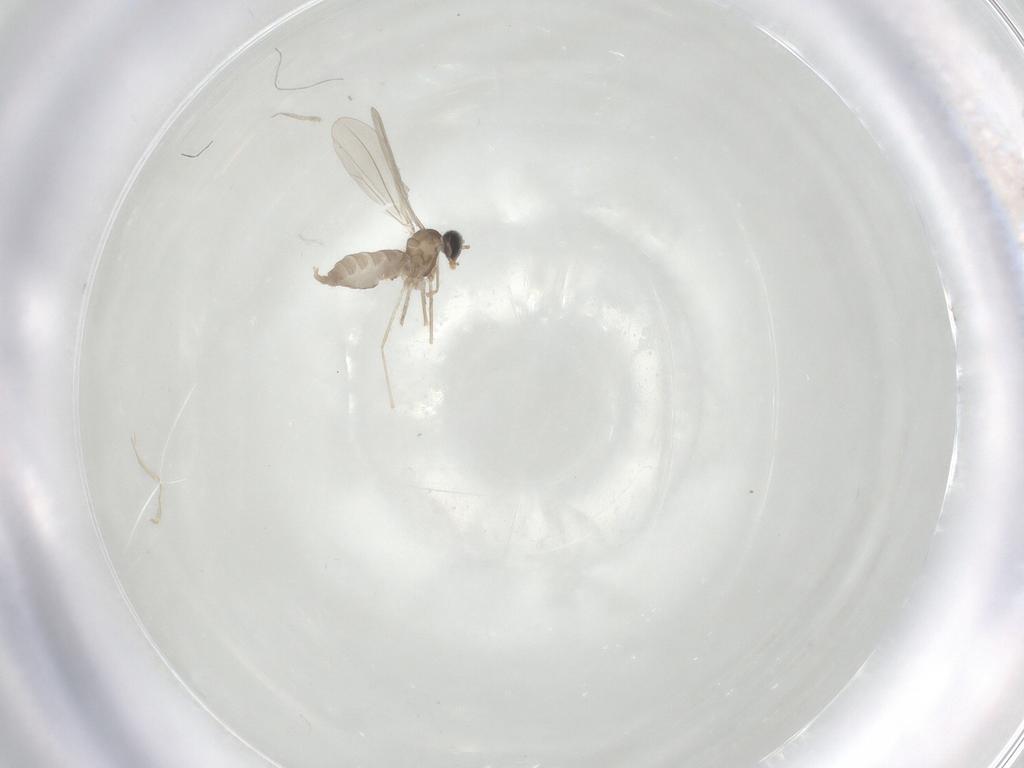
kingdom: Animalia
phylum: Arthropoda
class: Insecta
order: Diptera
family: Cecidomyiidae
